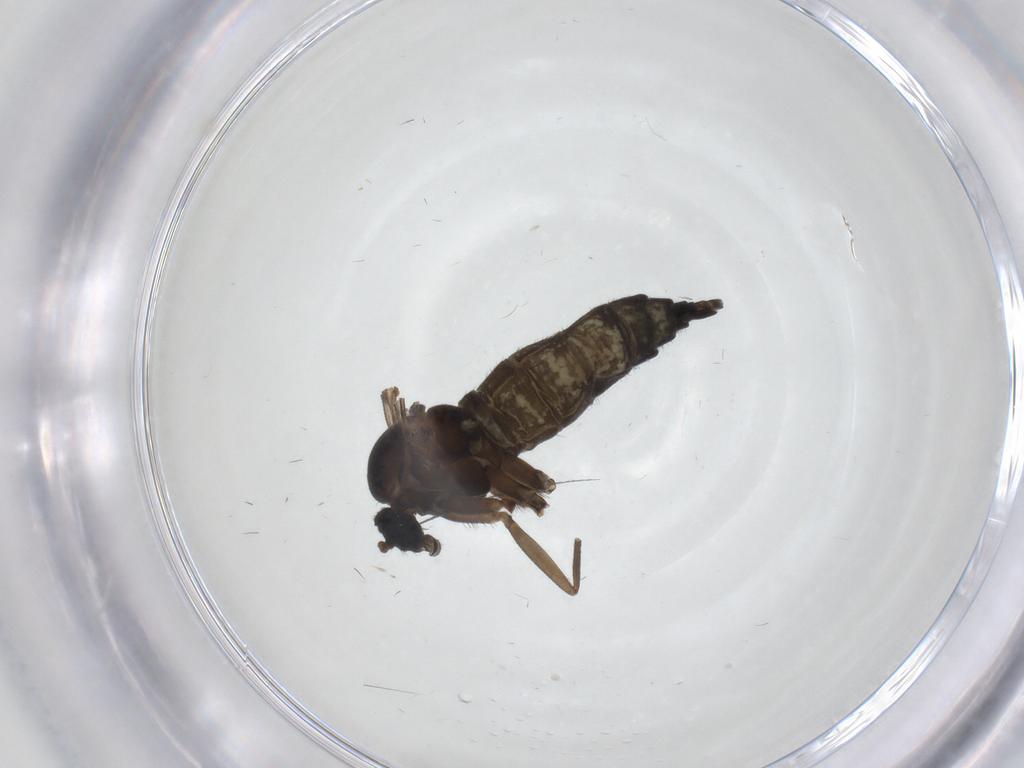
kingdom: Animalia
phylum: Arthropoda
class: Insecta
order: Diptera
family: Sciaridae
